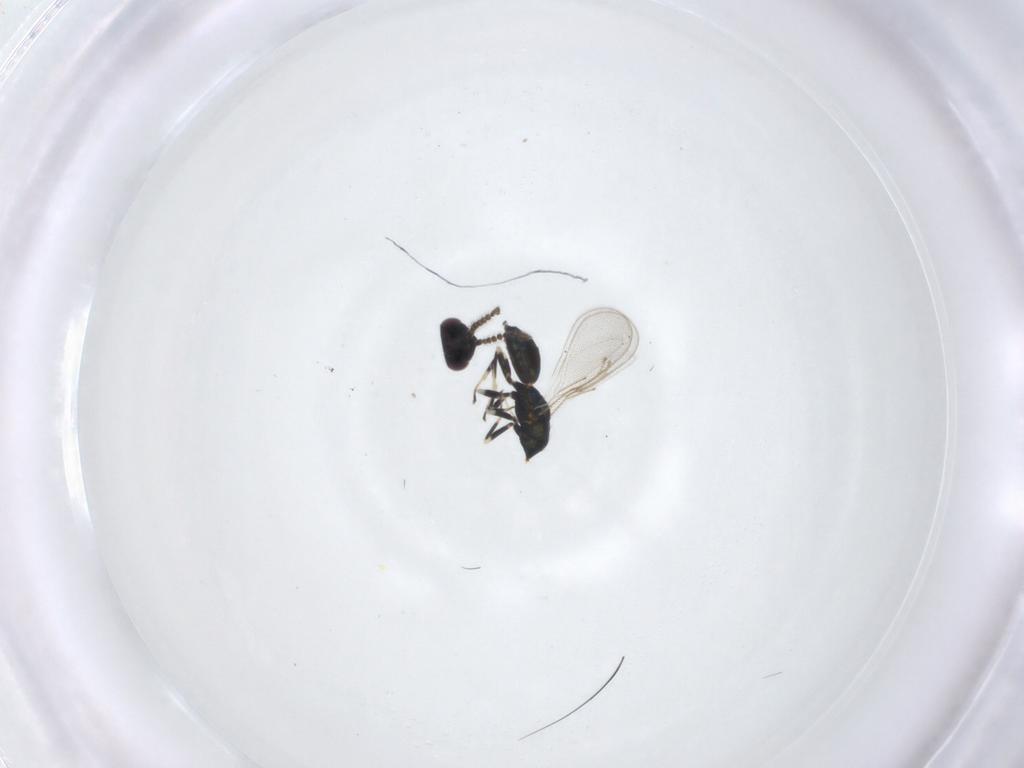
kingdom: Animalia
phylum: Arthropoda
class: Insecta
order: Hymenoptera
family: Eulophidae
